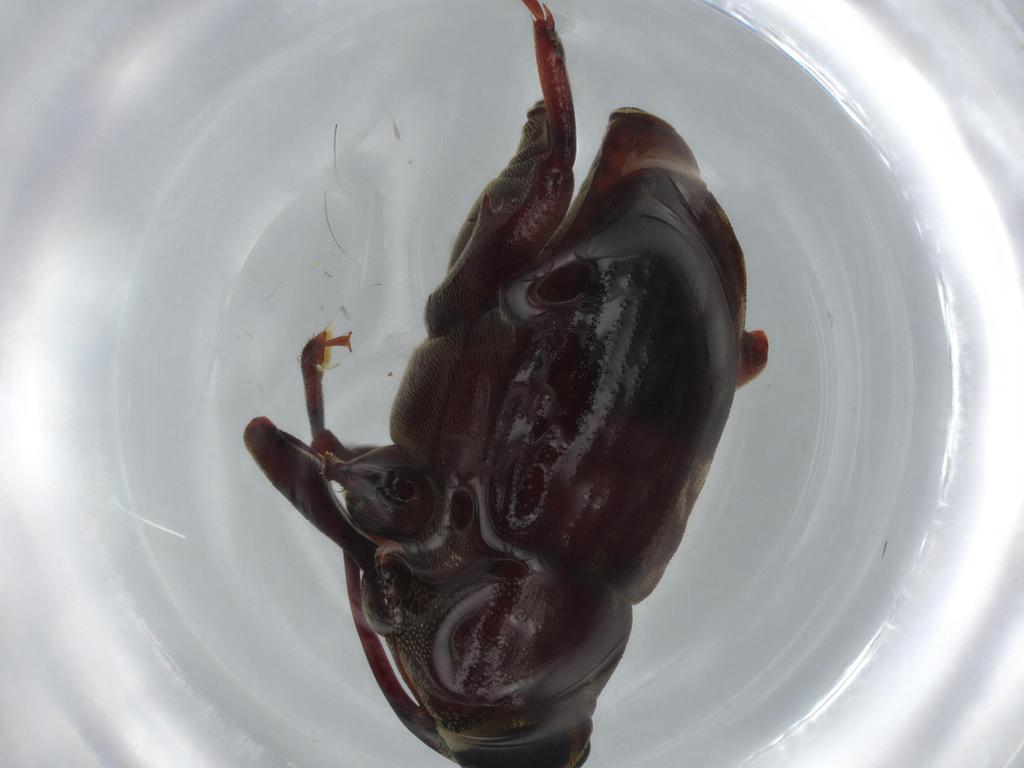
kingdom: Animalia
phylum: Arthropoda
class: Insecta
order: Coleoptera
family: Curculionidae
